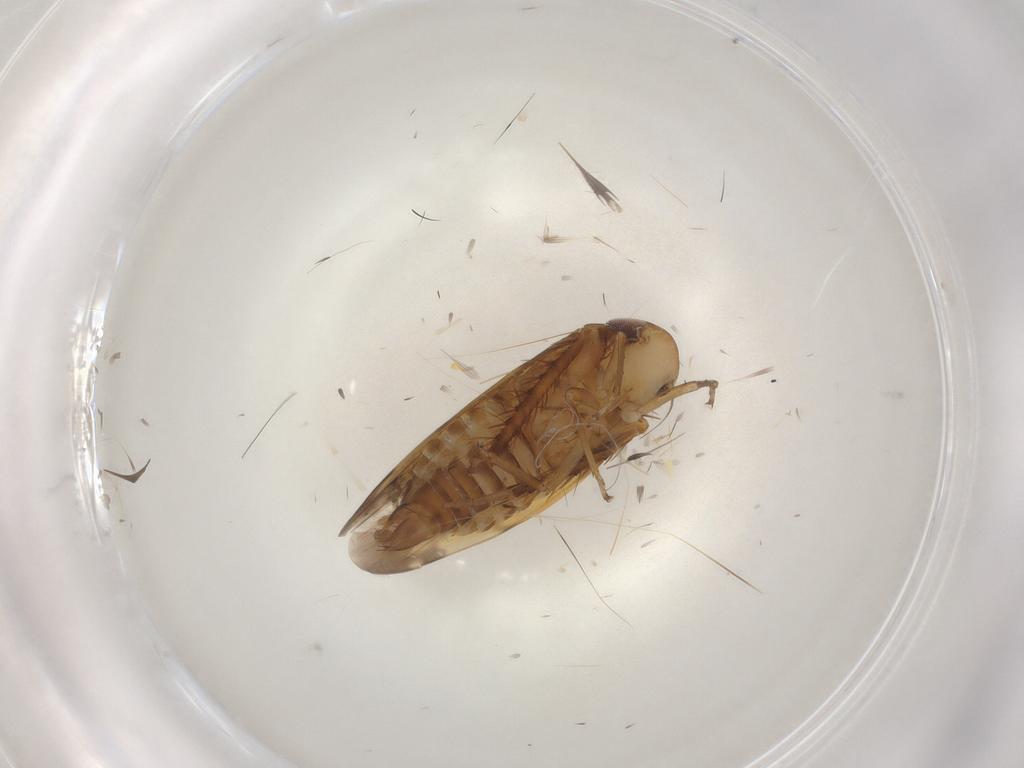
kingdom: Animalia
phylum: Arthropoda
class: Insecta
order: Hemiptera
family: Cicadellidae
